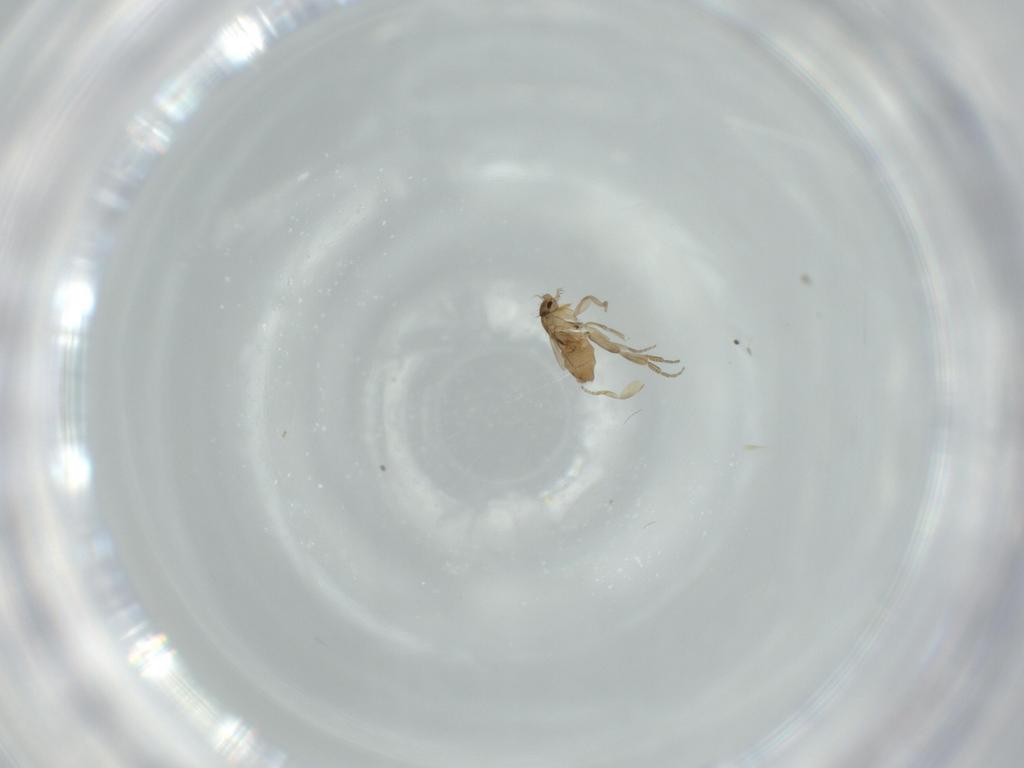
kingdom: Animalia
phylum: Arthropoda
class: Insecta
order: Diptera
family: Phoridae
